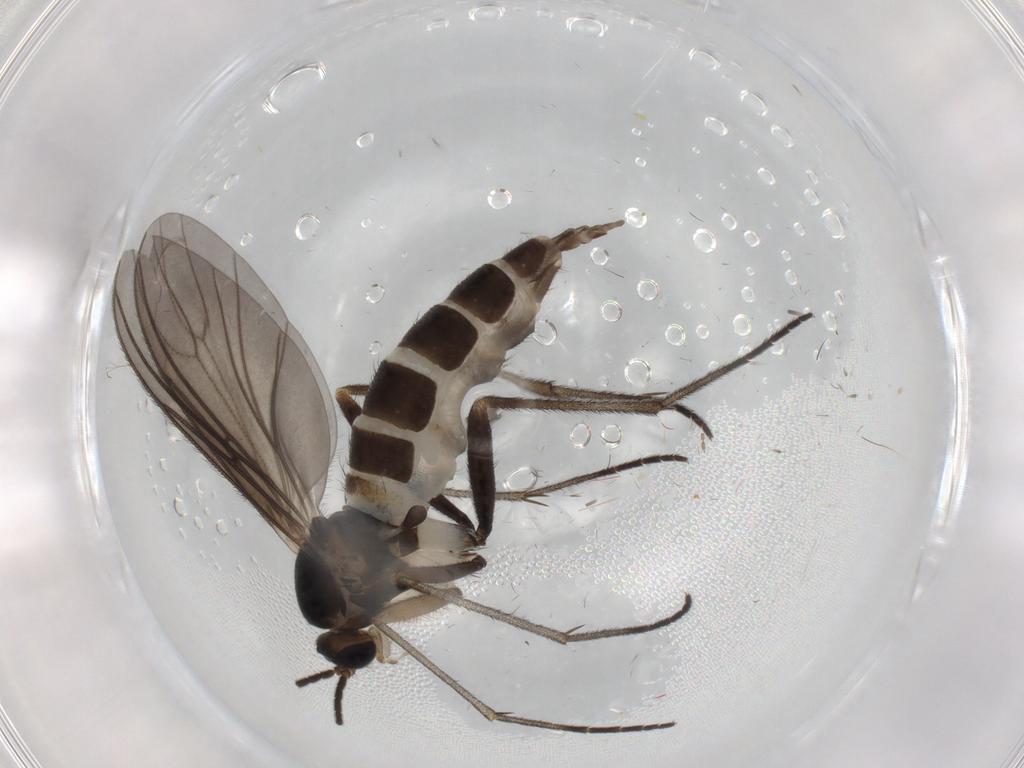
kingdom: Animalia
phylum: Arthropoda
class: Insecta
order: Diptera
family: Sciaridae
